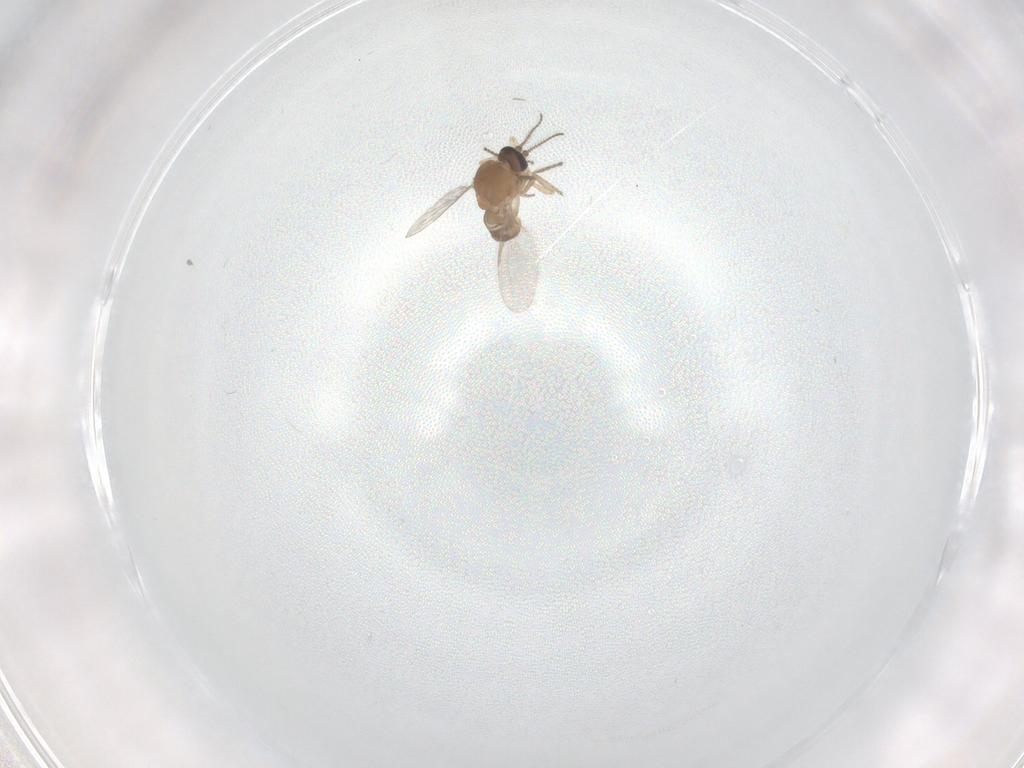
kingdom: Animalia
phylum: Arthropoda
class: Insecta
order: Diptera
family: Ceratopogonidae
